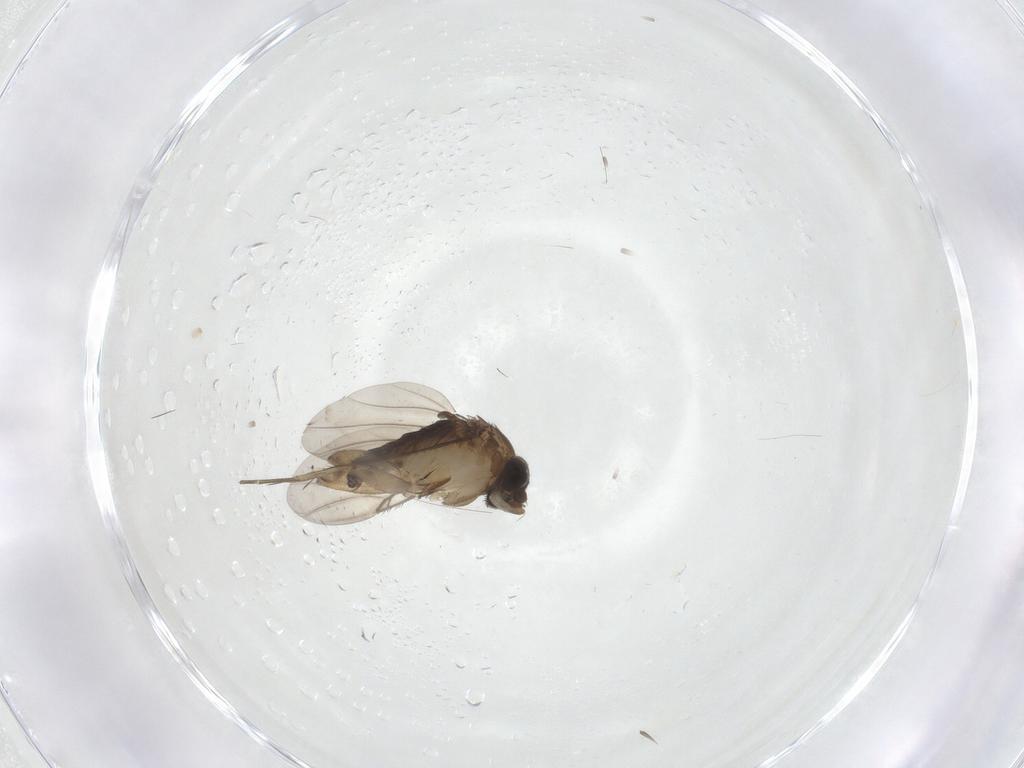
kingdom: Animalia
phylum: Arthropoda
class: Insecta
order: Diptera
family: Phoridae
